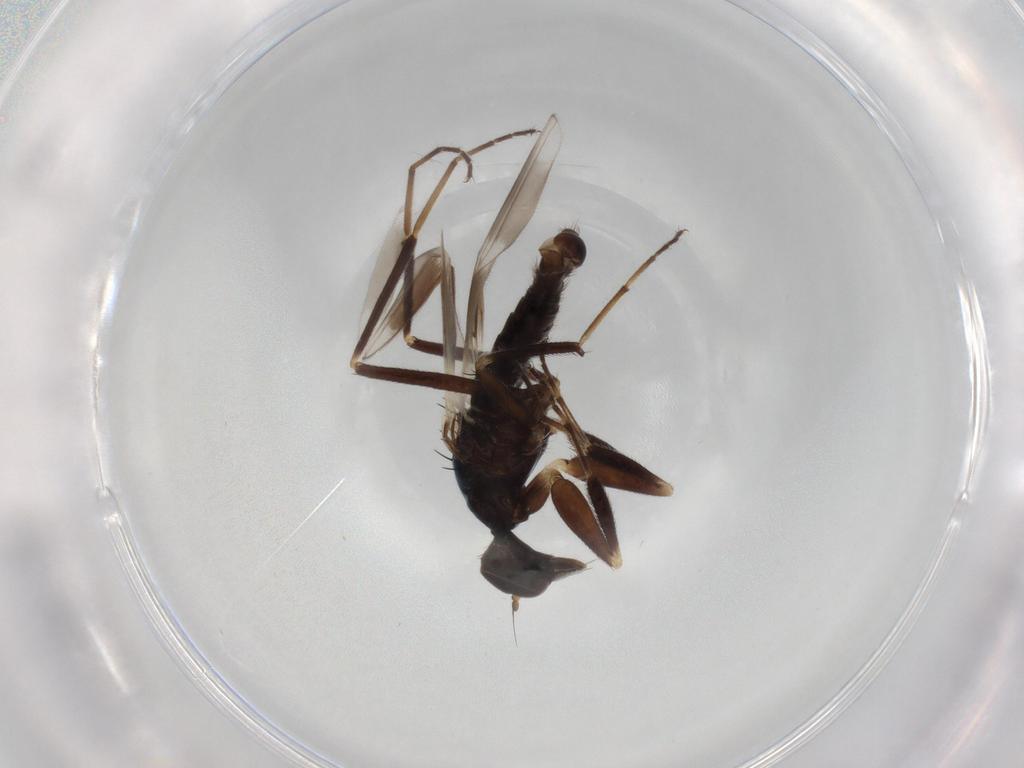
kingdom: Animalia
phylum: Arthropoda
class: Insecta
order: Diptera
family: Hybotidae
